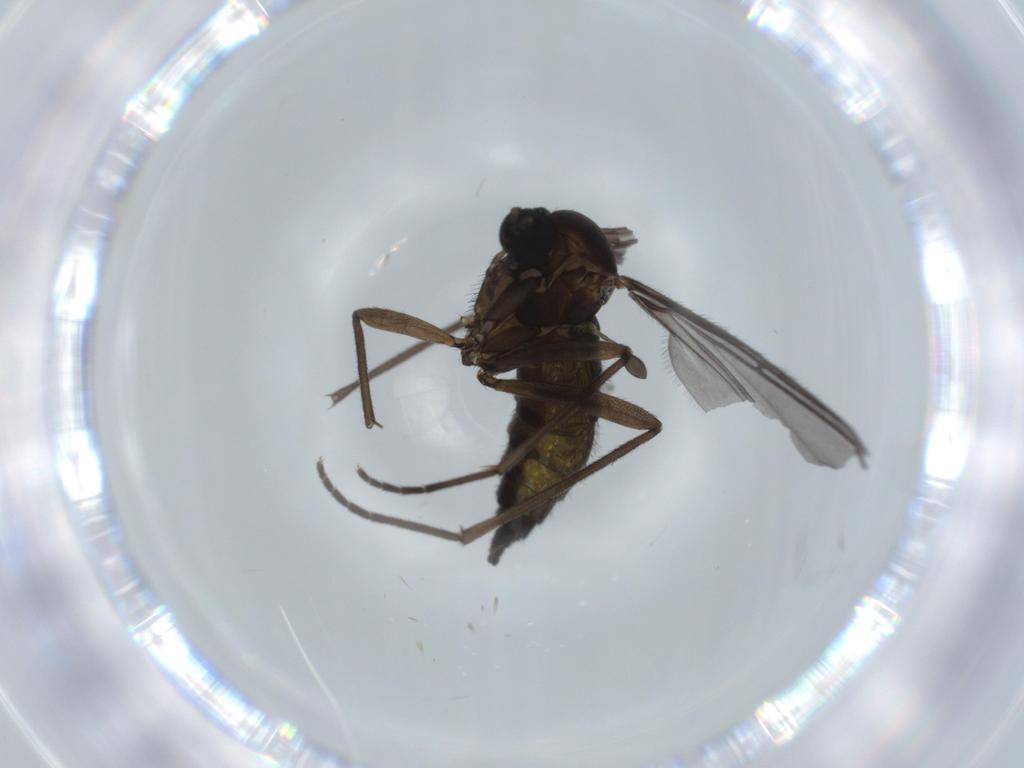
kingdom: Animalia
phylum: Arthropoda
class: Insecta
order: Diptera
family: Sciaridae
